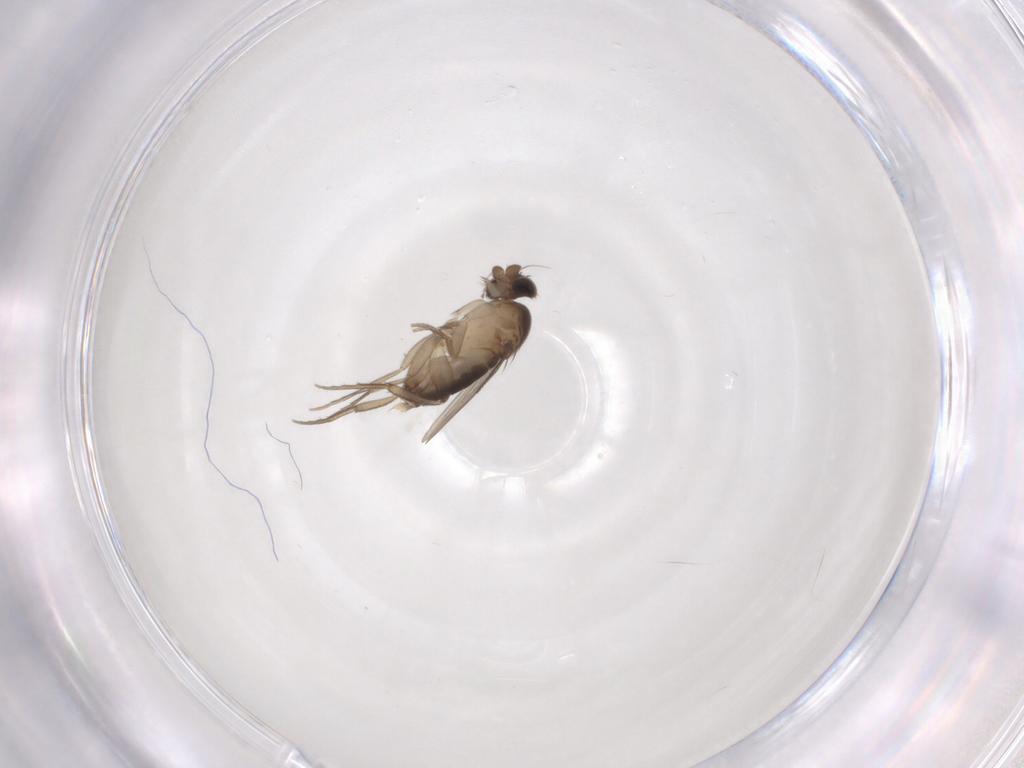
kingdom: Animalia
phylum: Arthropoda
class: Insecta
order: Diptera
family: Phoridae
